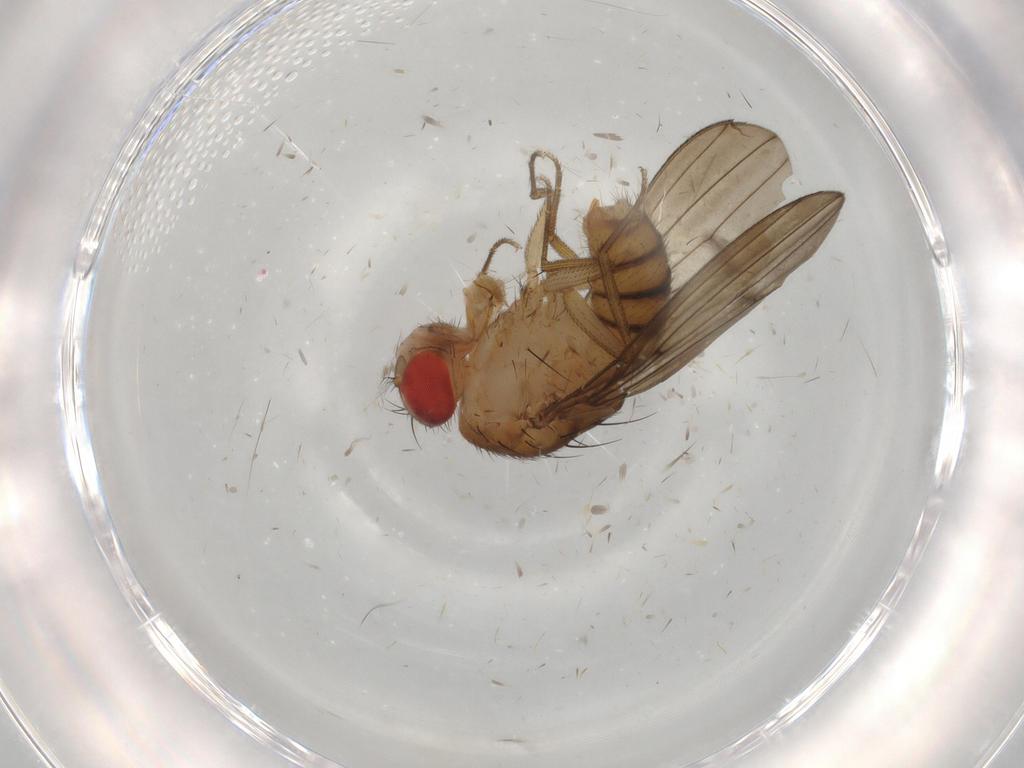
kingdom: Animalia
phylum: Arthropoda
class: Insecta
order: Diptera
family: Drosophilidae
